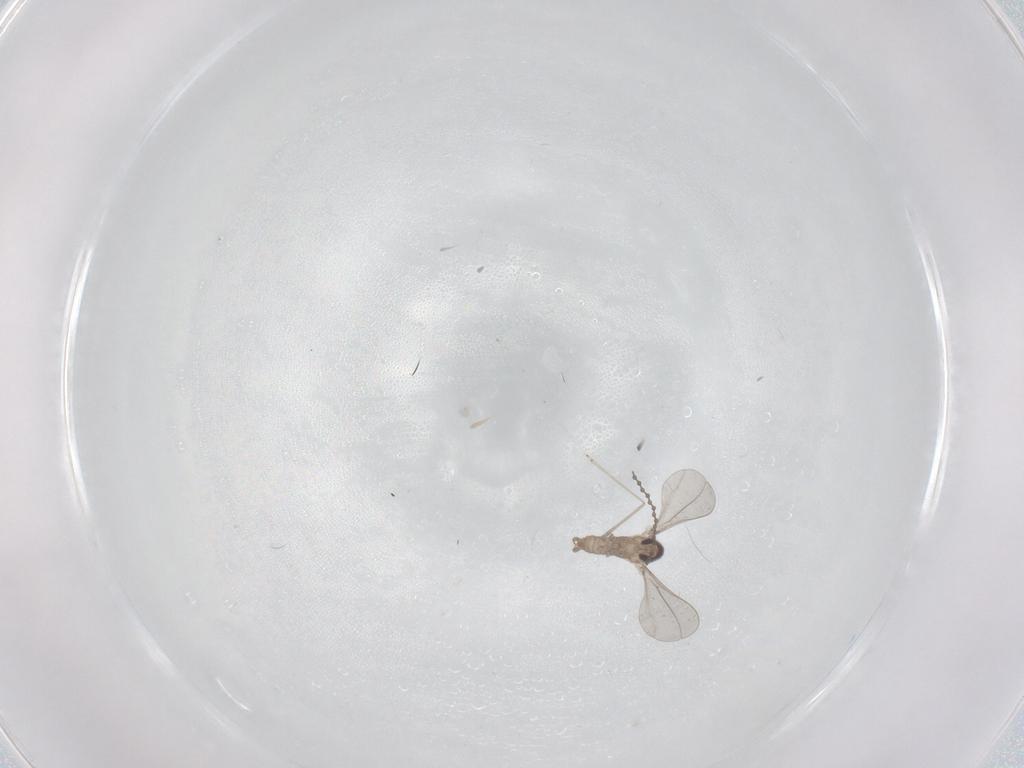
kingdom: Animalia
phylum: Arthropoda
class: Insecta
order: Diptera
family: Cecidomyiidae
